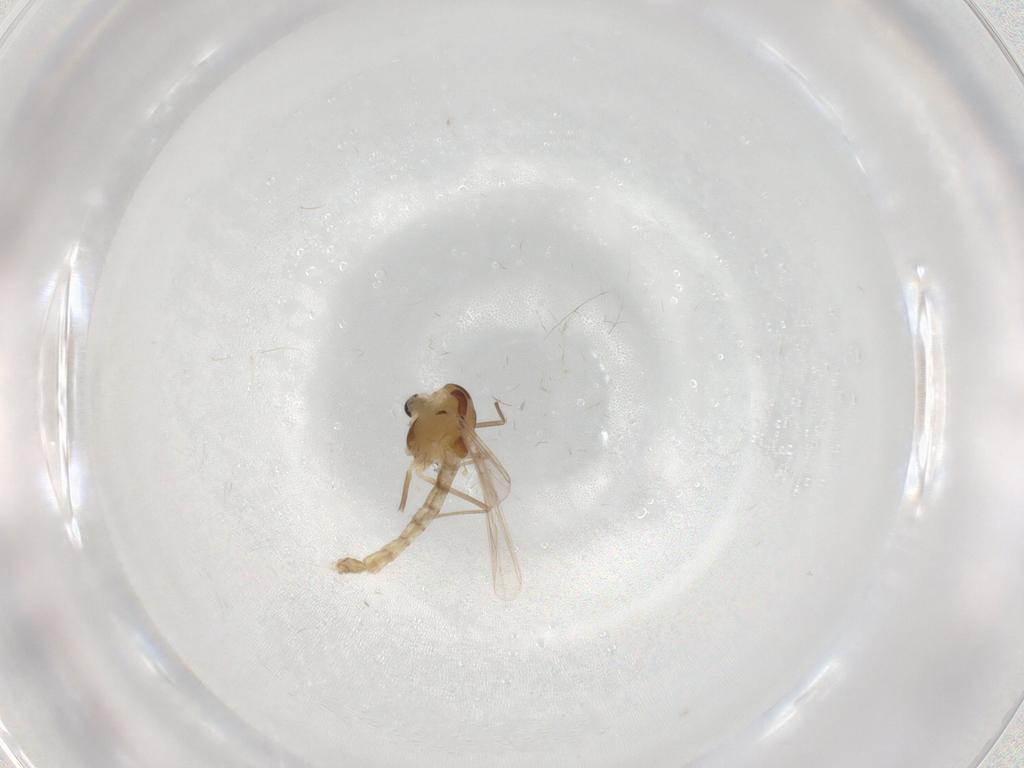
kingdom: Animalia
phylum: Arthropoda
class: Insecta
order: Diptera
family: Chironomidae
